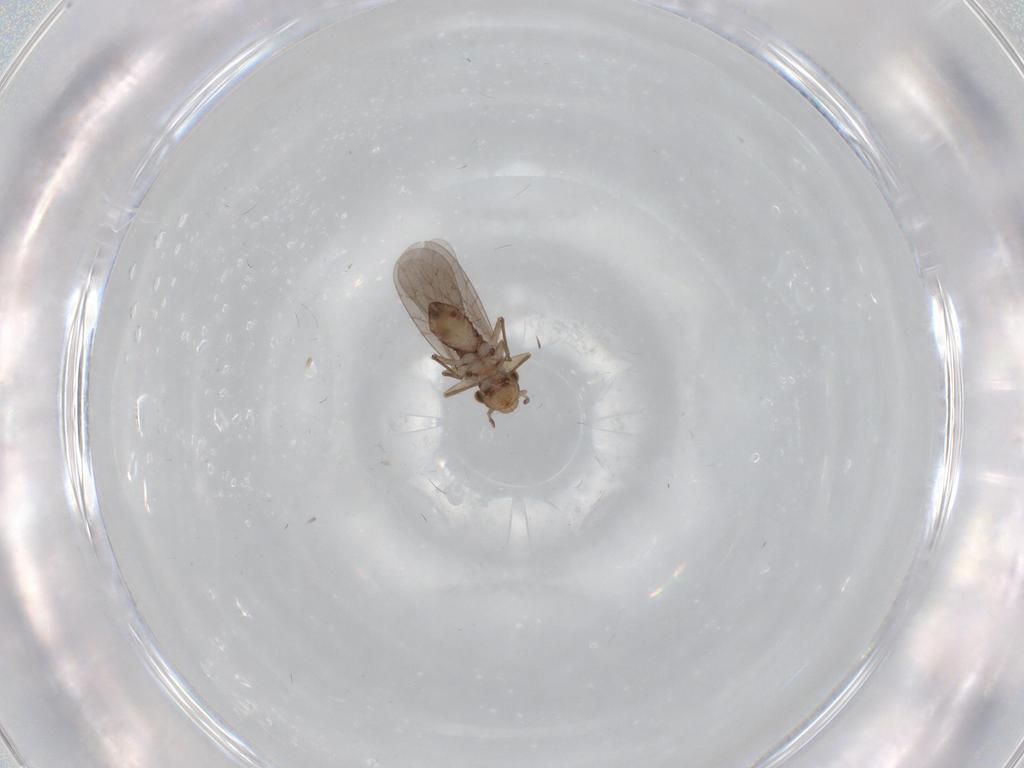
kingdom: Animalia
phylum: Arthropoda
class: Insecta
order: Psocodea
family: Lepidopsocidae
